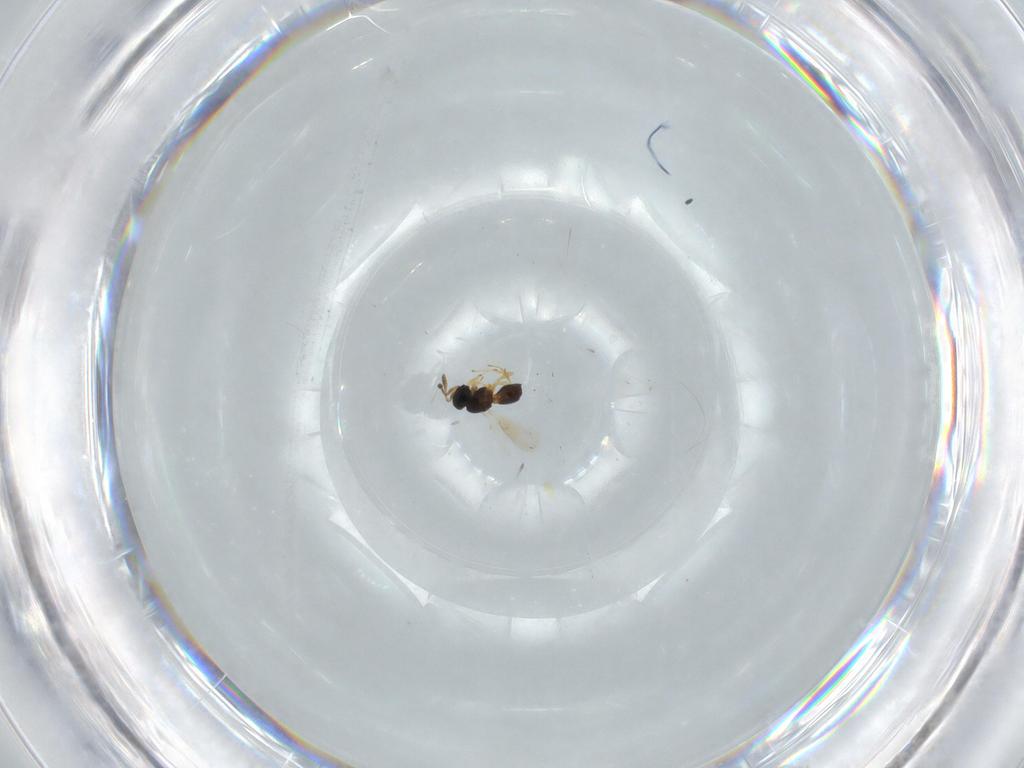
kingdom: Animalia
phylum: Arthropoda
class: Insecta
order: Hymenoptera
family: Scelionidae
